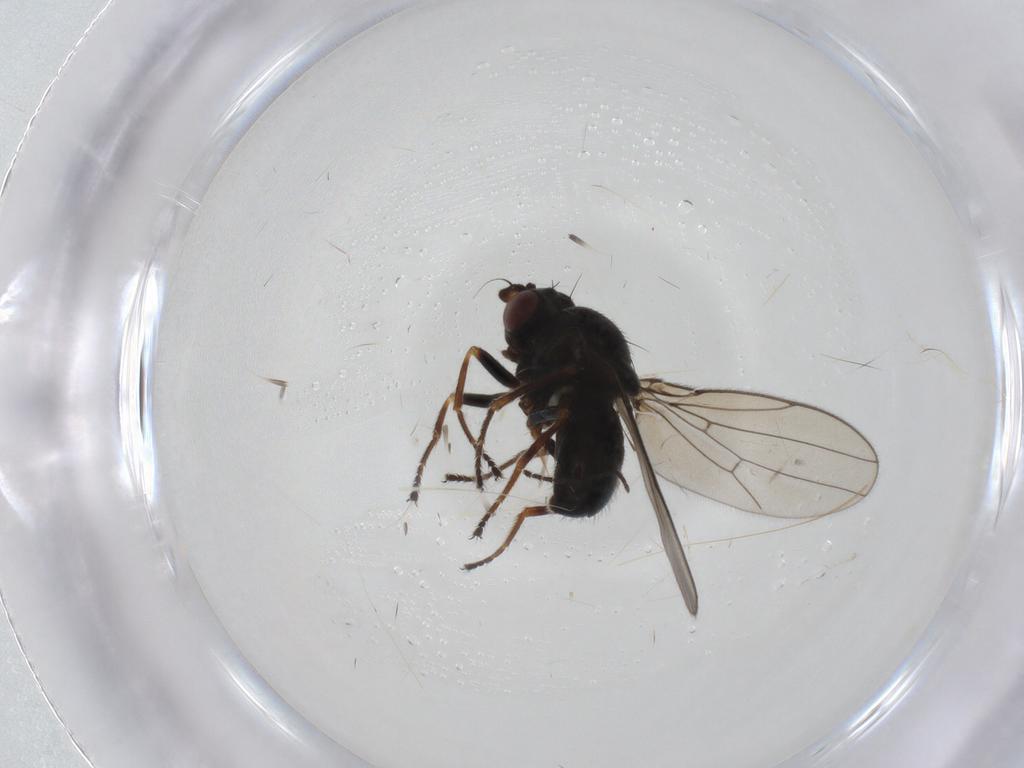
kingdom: Animalia
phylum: Arthropoda
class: Insecta
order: Diptera
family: Ephydridae
